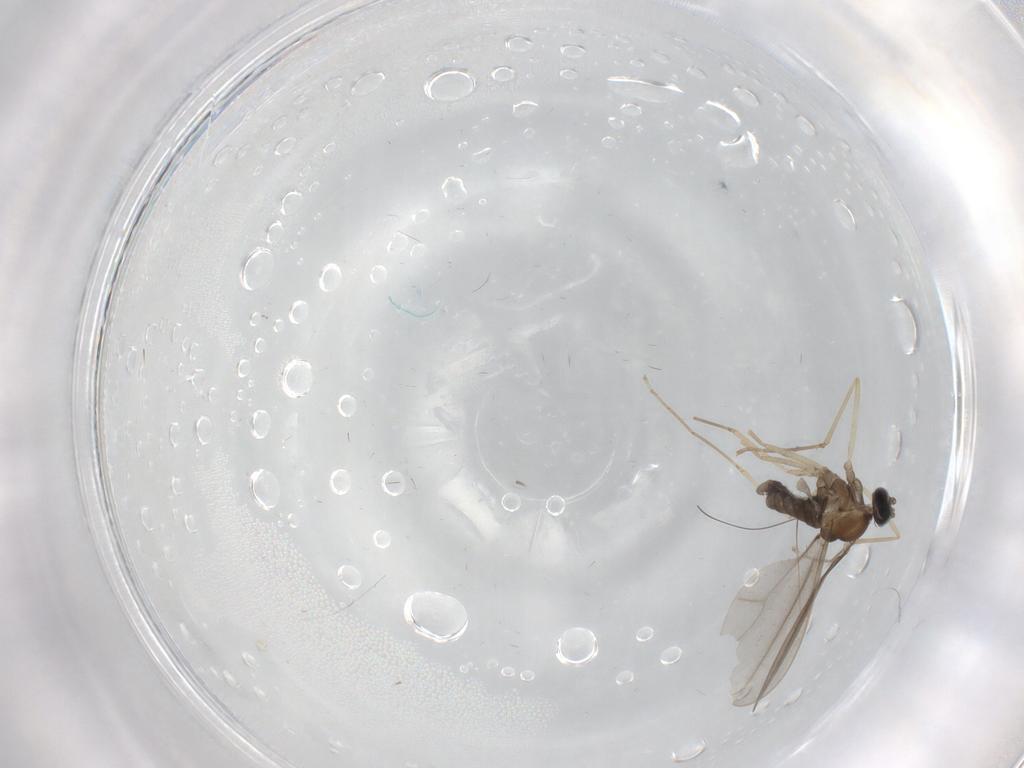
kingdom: Animalia
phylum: Arthropoda
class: Insecta
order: Diptera
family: Cecidomyiidae
